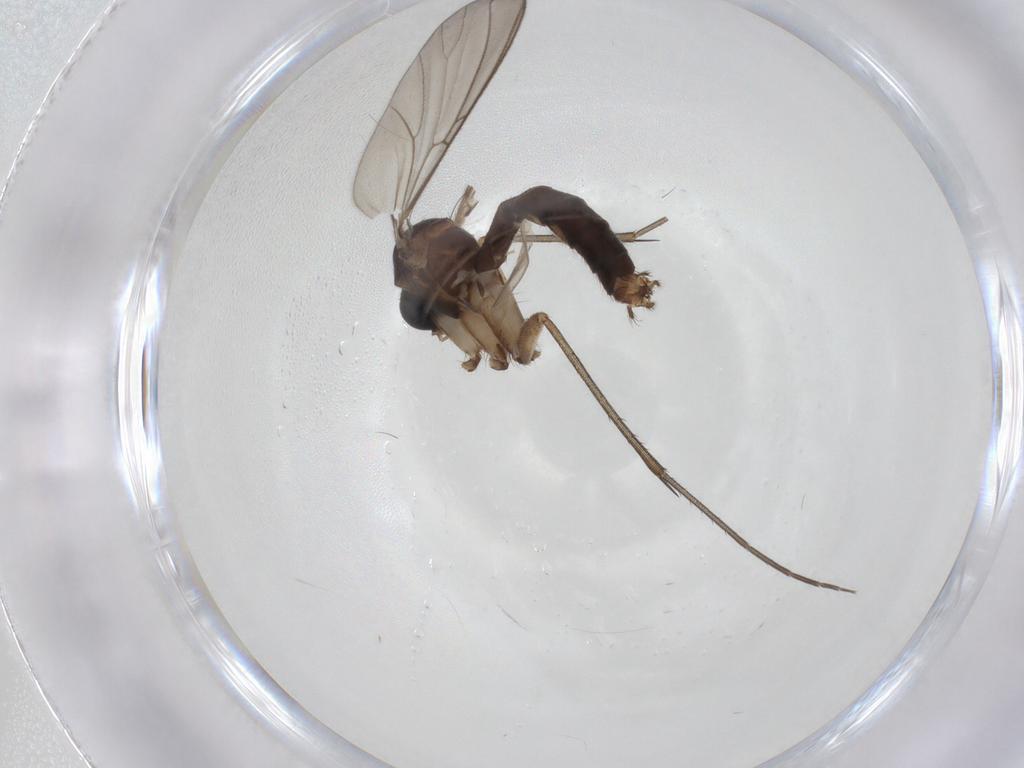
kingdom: Animalia
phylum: Arthropoda
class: Insecta
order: Diptera
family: Mycetophilidae
